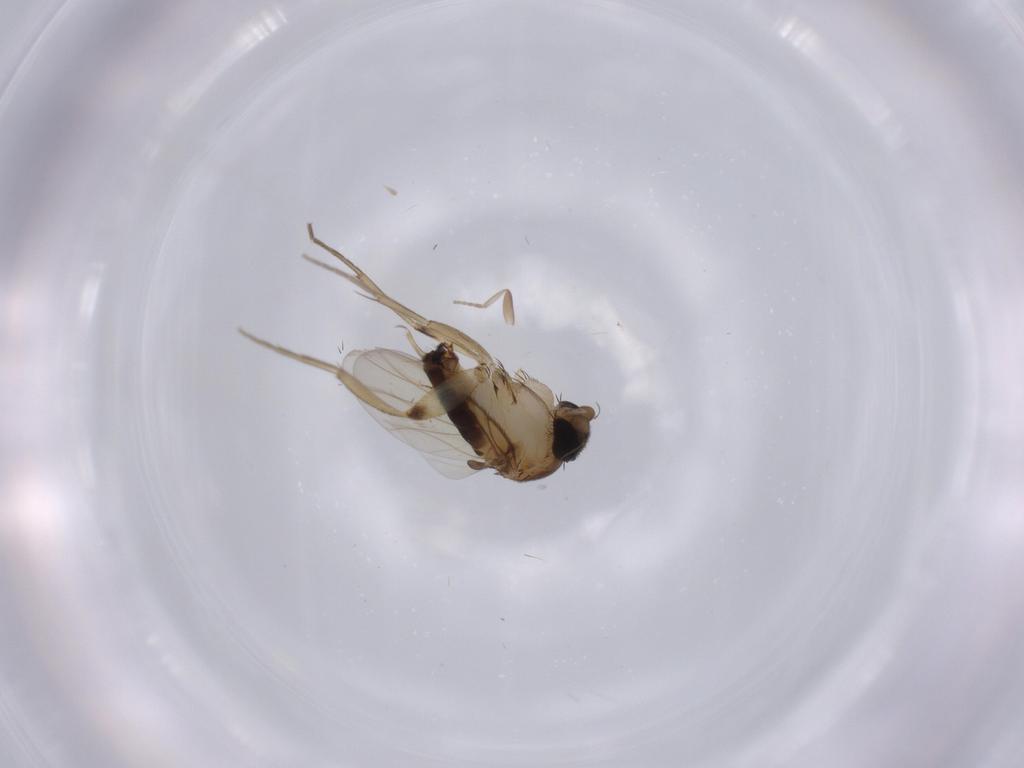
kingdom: Animalia
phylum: Arthropoda
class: Insecta
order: Diptera
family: Phoridae
